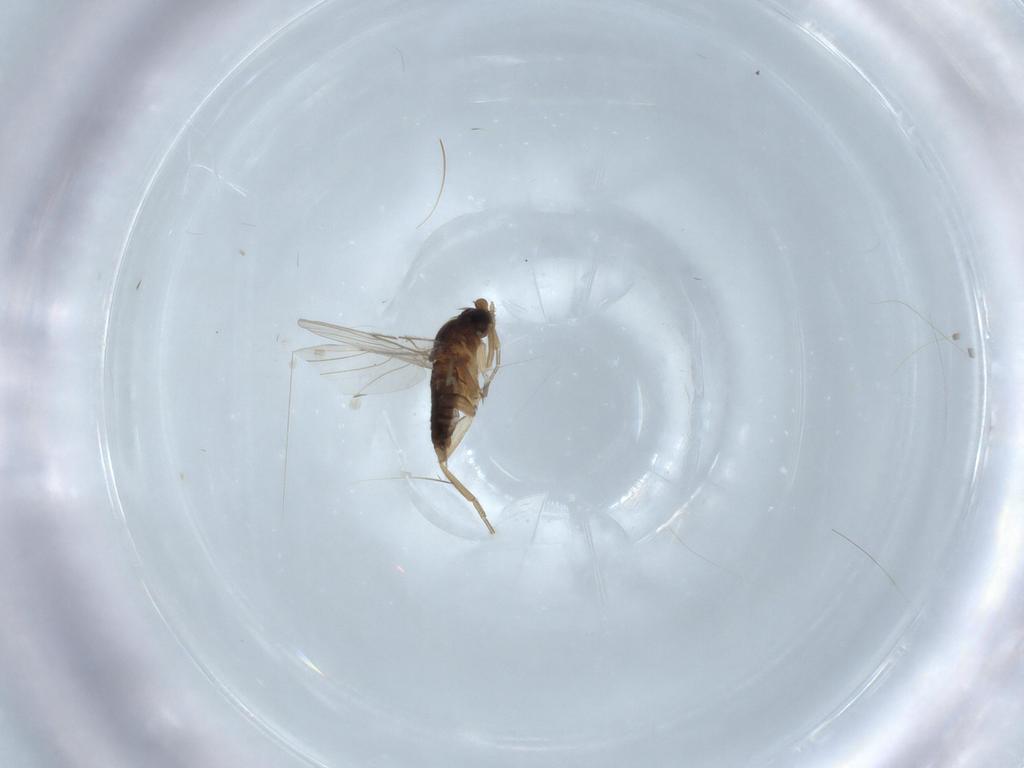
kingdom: Animalia
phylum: Arthropoda
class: Insecta
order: Diptera
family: Phoridae
